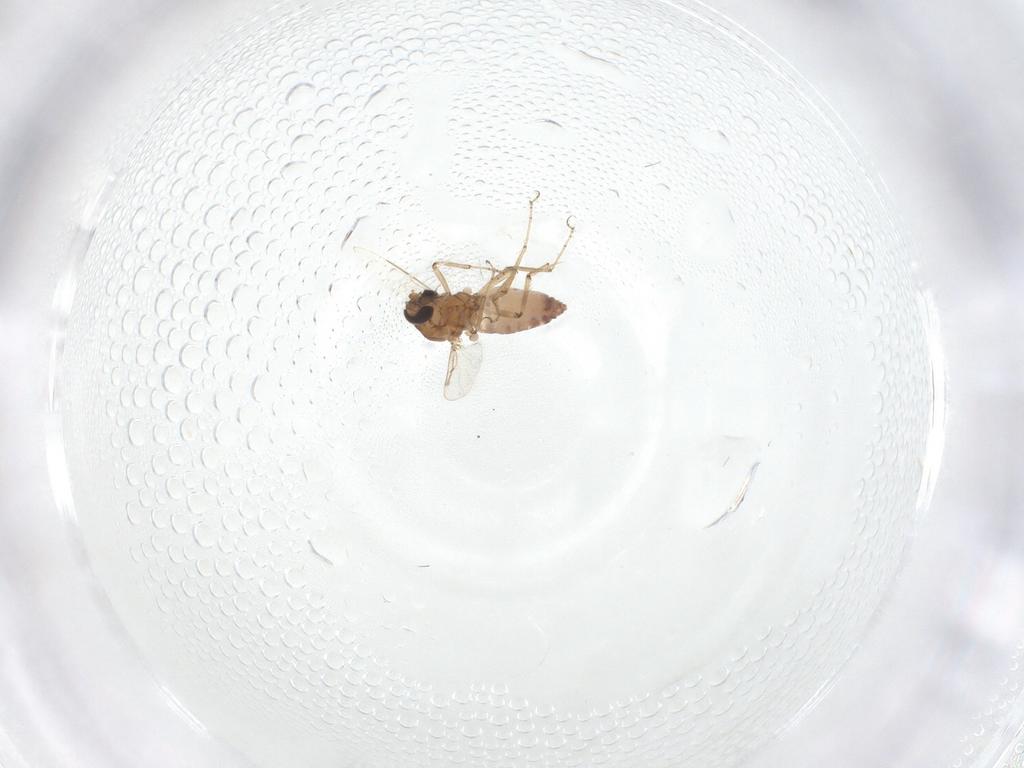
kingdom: Animalia
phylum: Arthropoda
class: Insecta
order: Diptera
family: Ceratopogonidae
